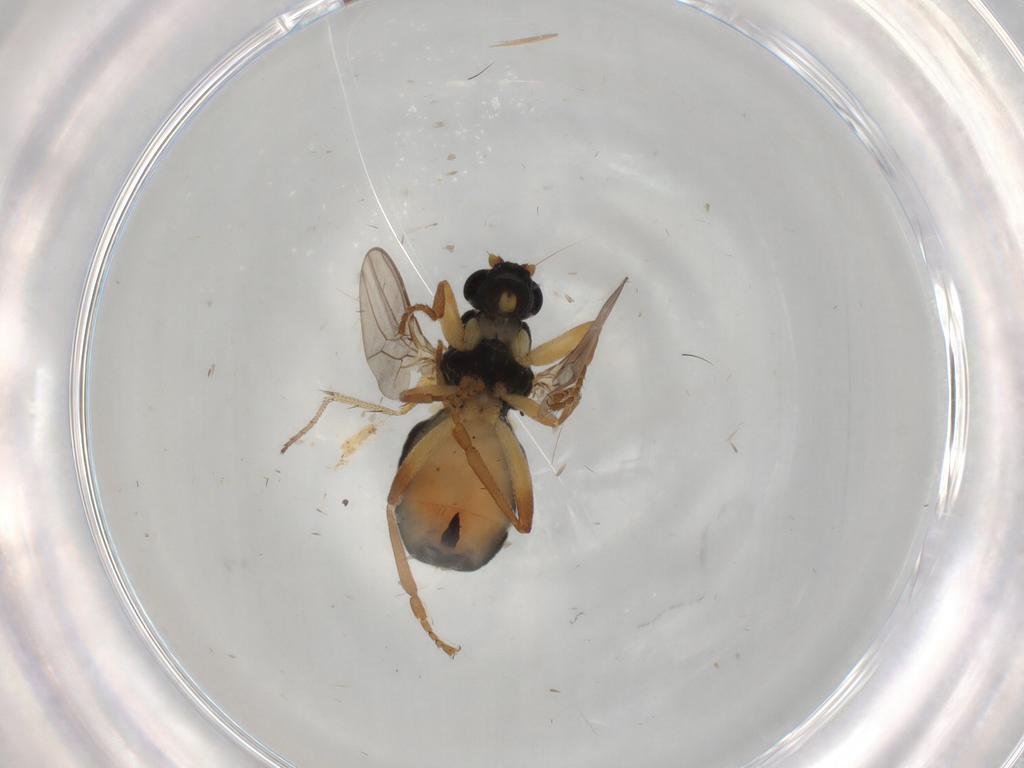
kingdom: Animalia
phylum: Arthropoda
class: Insecta
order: Diptera
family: Sphaeroceridae
